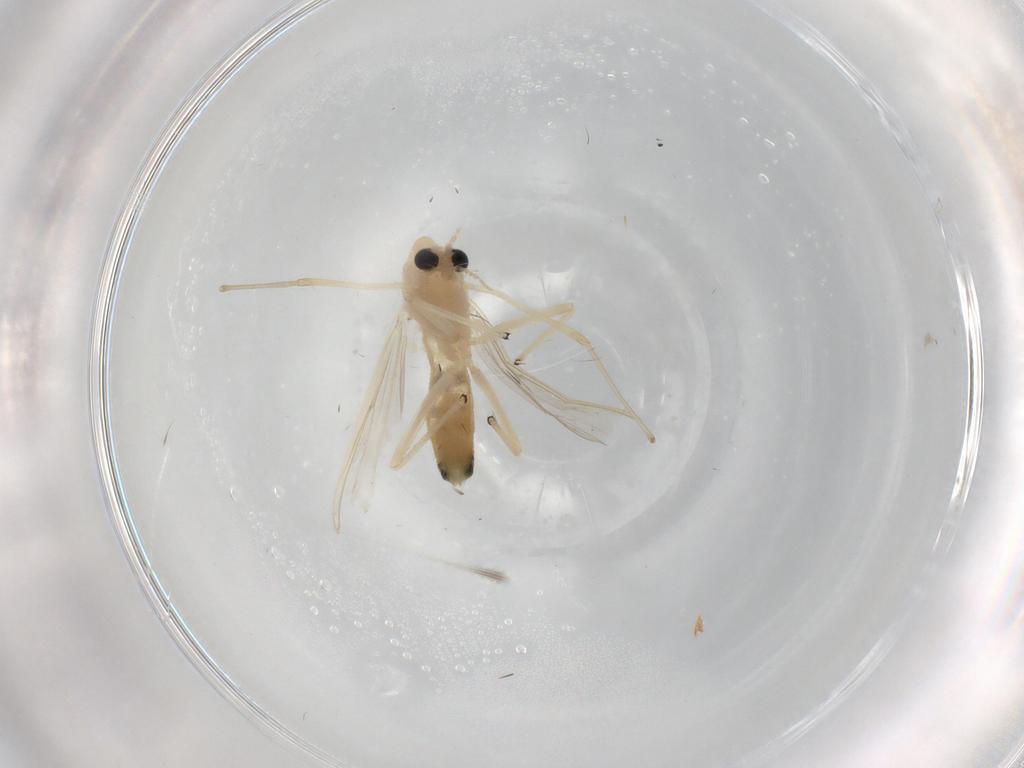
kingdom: Animalia
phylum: Arthropoda
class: Insecta
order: Diptera
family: Chironomidae
